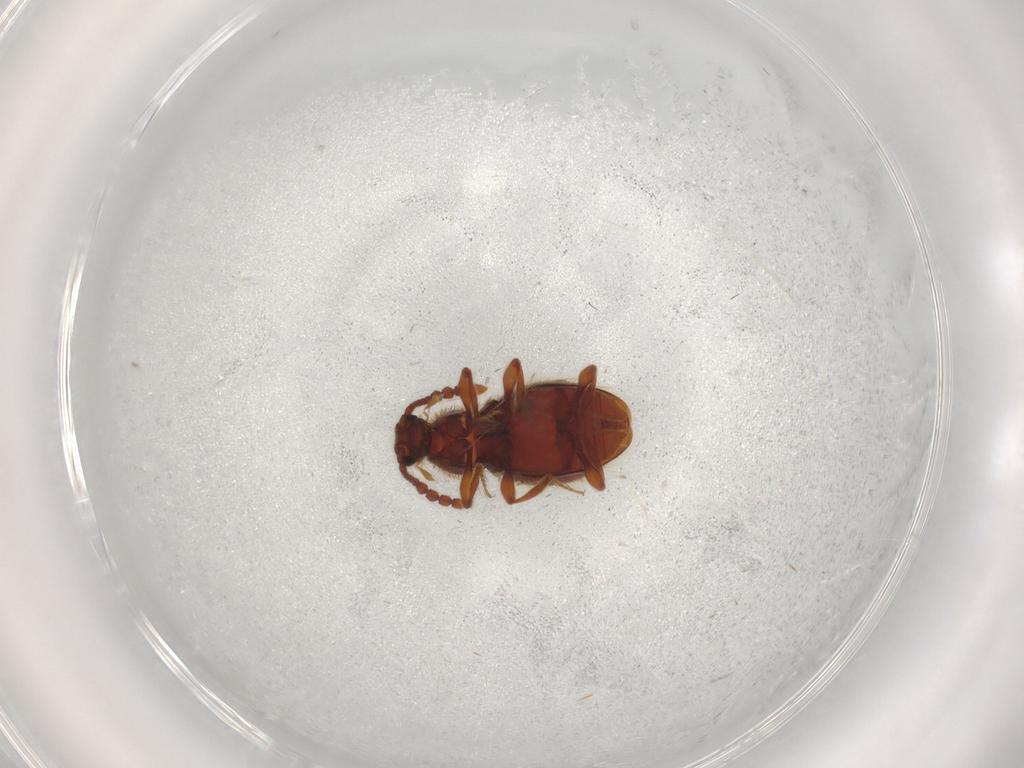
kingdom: Animalia
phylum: Arthropoda
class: Insecta
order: Coleoptera
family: Staphylinidae
